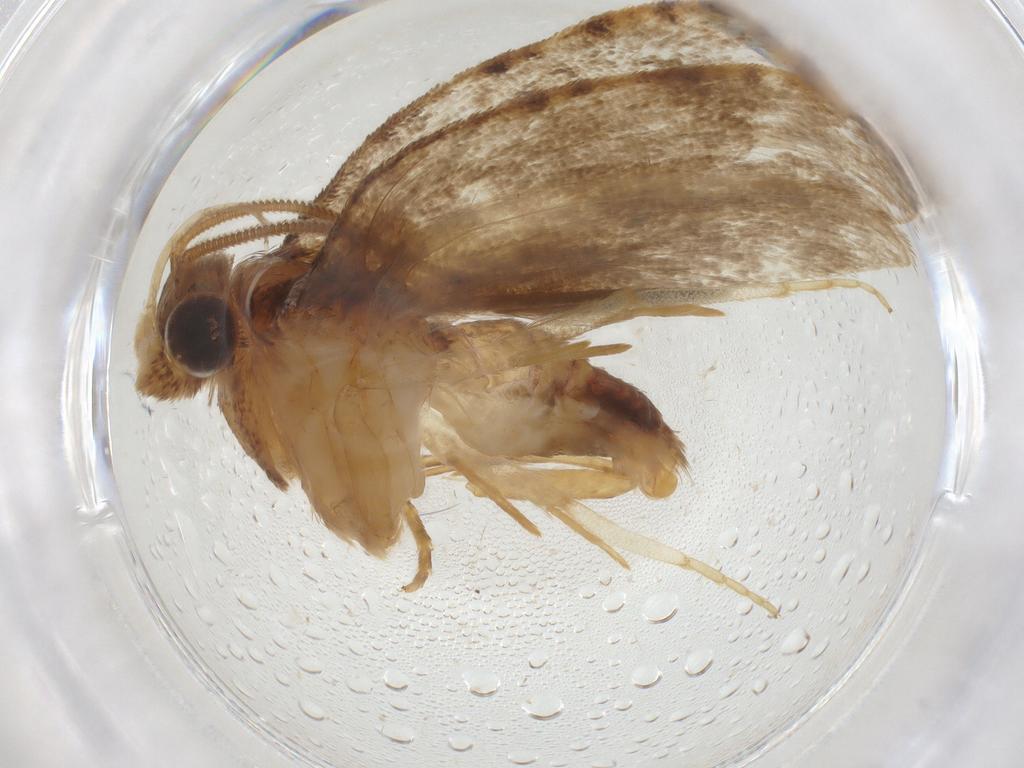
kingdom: Animalia
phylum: Arthropoda
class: Insecta
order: Lepidoptera
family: Tineidae
